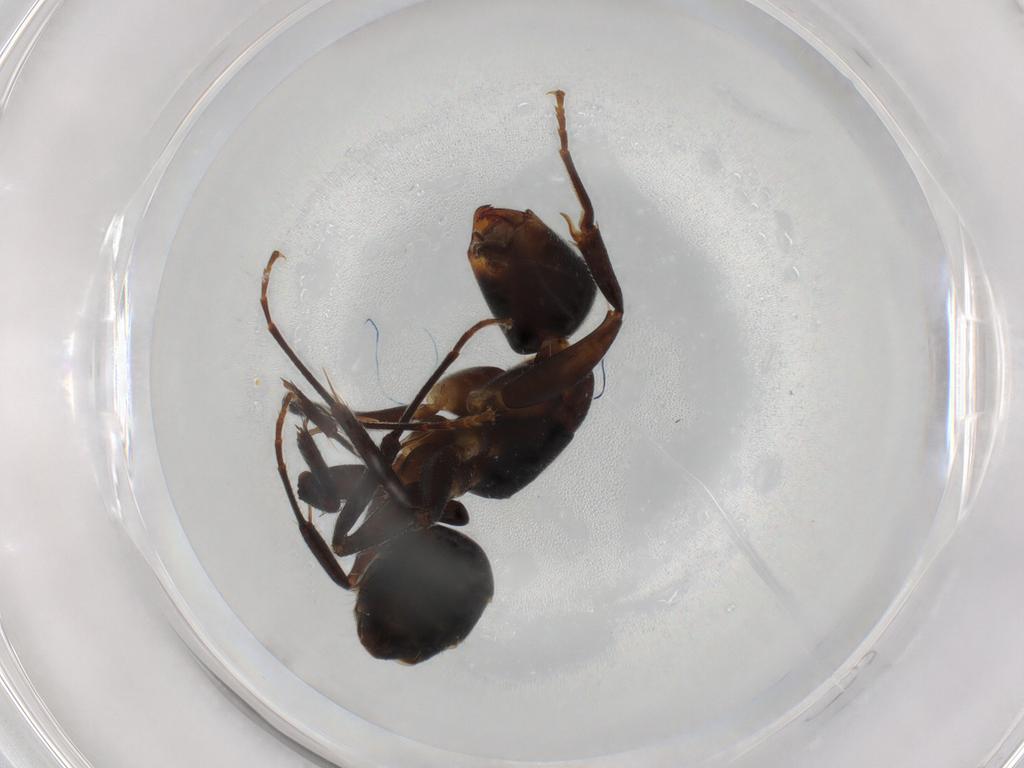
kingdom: Animalia
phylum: Arthropoda
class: Insecta
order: Hymenoptera
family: Formicidae
